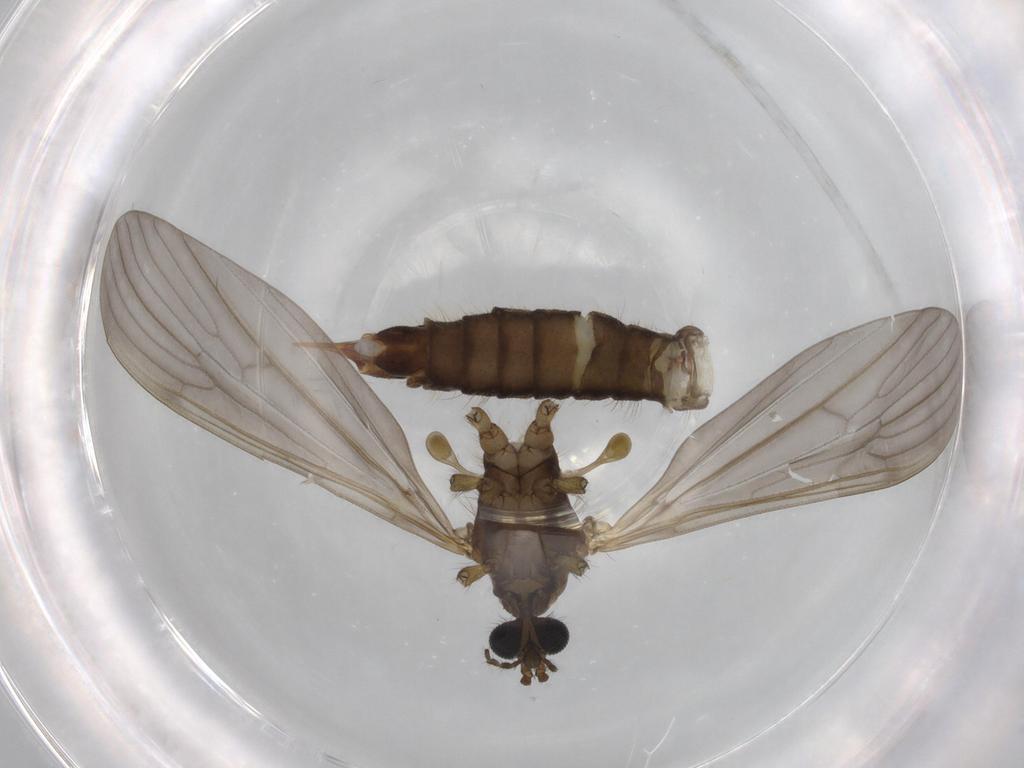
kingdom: Animalia
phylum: Arthropoda
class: Insecta
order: Diptera
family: Limoniidae
